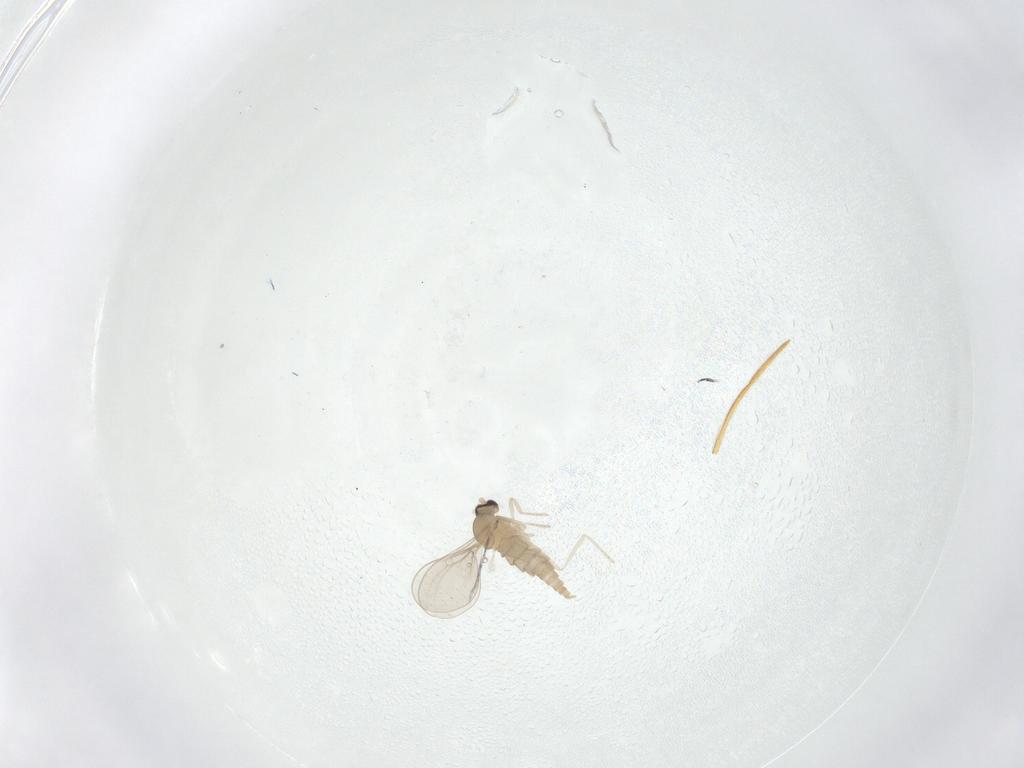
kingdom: Animalia
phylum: Arthropoda
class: Insecta
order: Diptera
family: Cecidomyiidae
